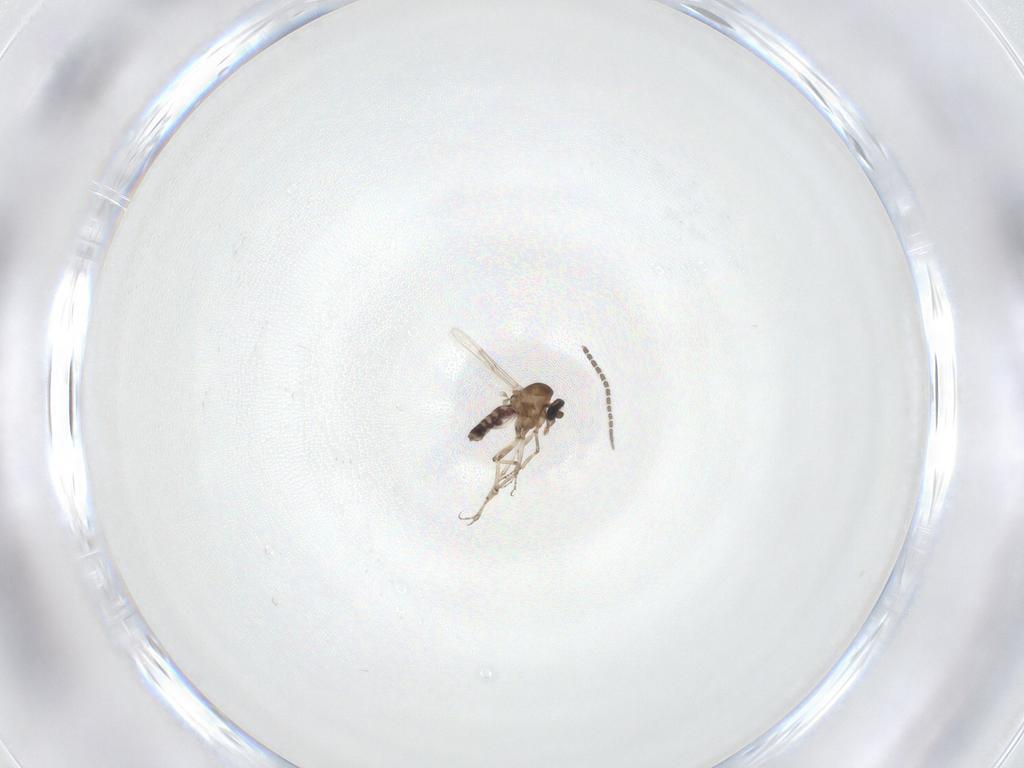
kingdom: Animalia
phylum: Arthropoda
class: Insecta
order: Diptera
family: Sciaridae
